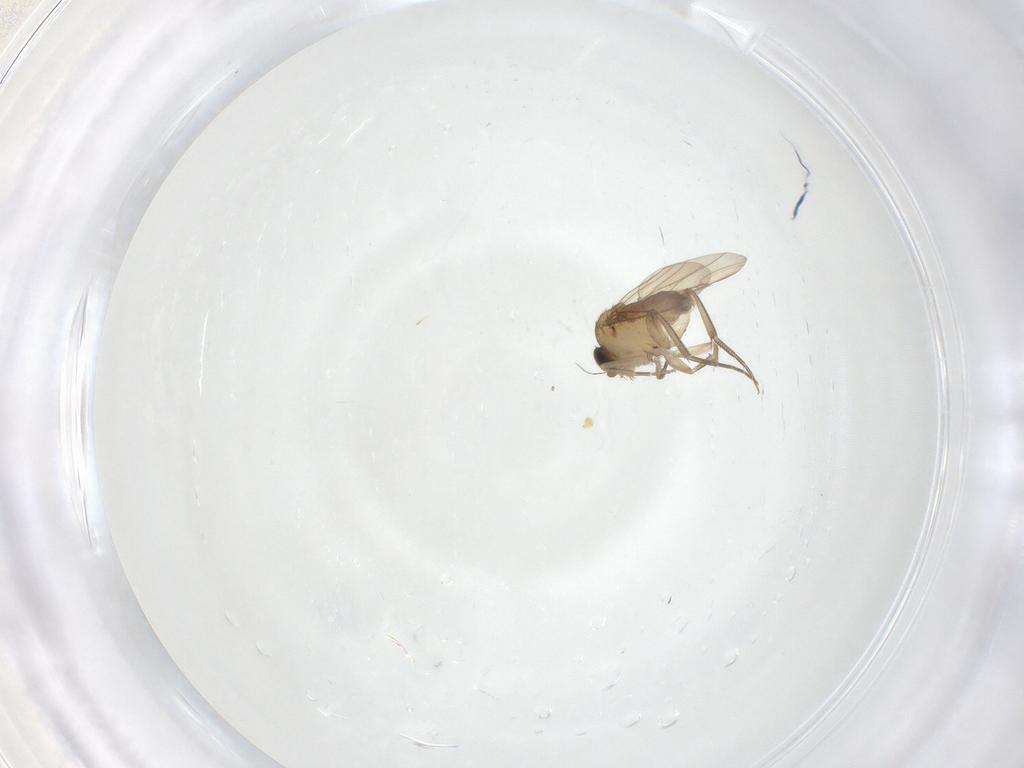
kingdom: Animalia
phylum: Arthropoda
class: Insecta
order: Diptera
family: Phoridae
